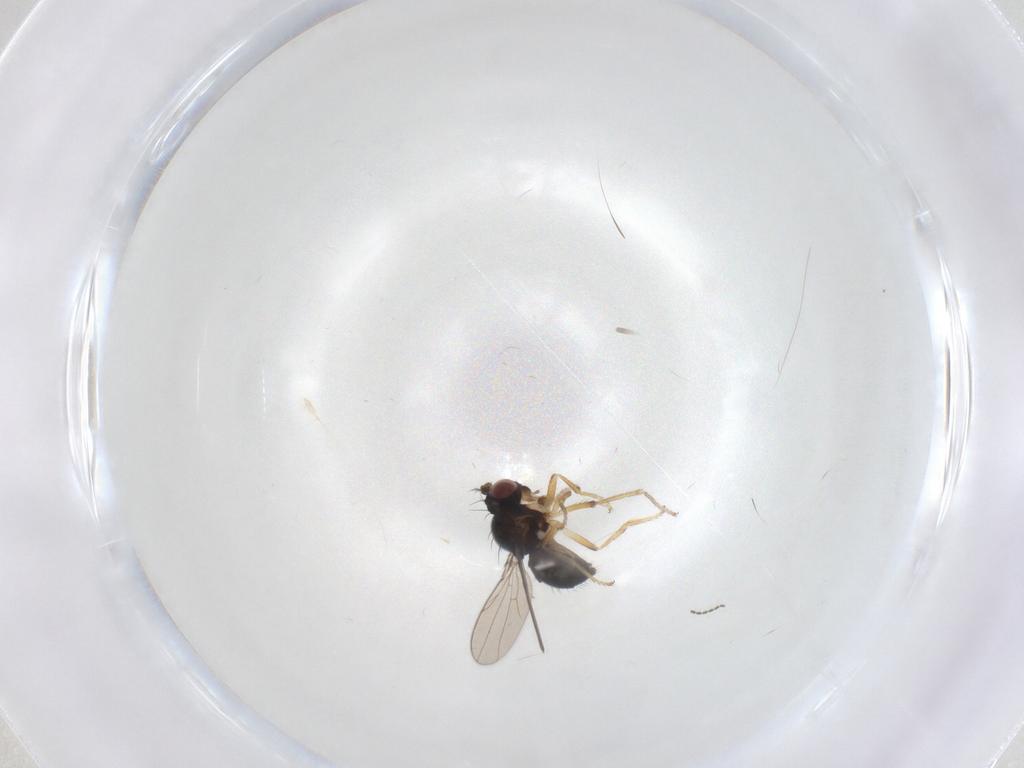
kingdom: Animalia
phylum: Arthropoda
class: Insecta
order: Diptera
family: Ephydridae
